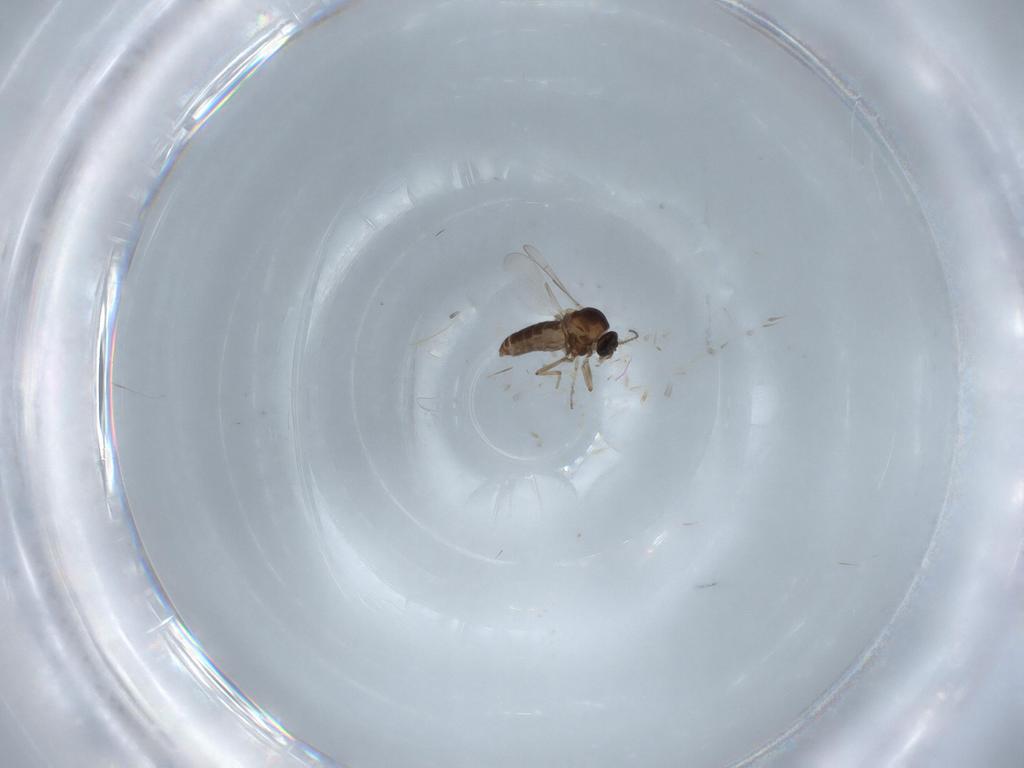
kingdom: Animalia
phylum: Arthropoda
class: Insecta
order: Diptera
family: Ceratopogonidae
